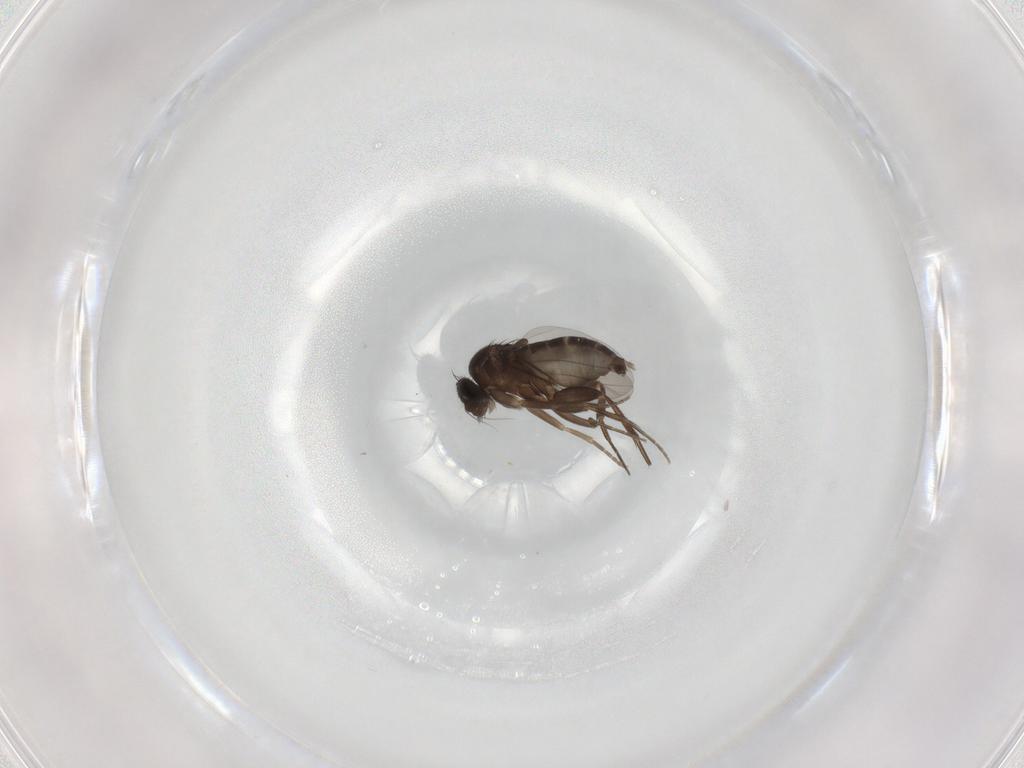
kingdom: Animalia
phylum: Arthropoda
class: Insecta
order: Diptera
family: Phoridae
